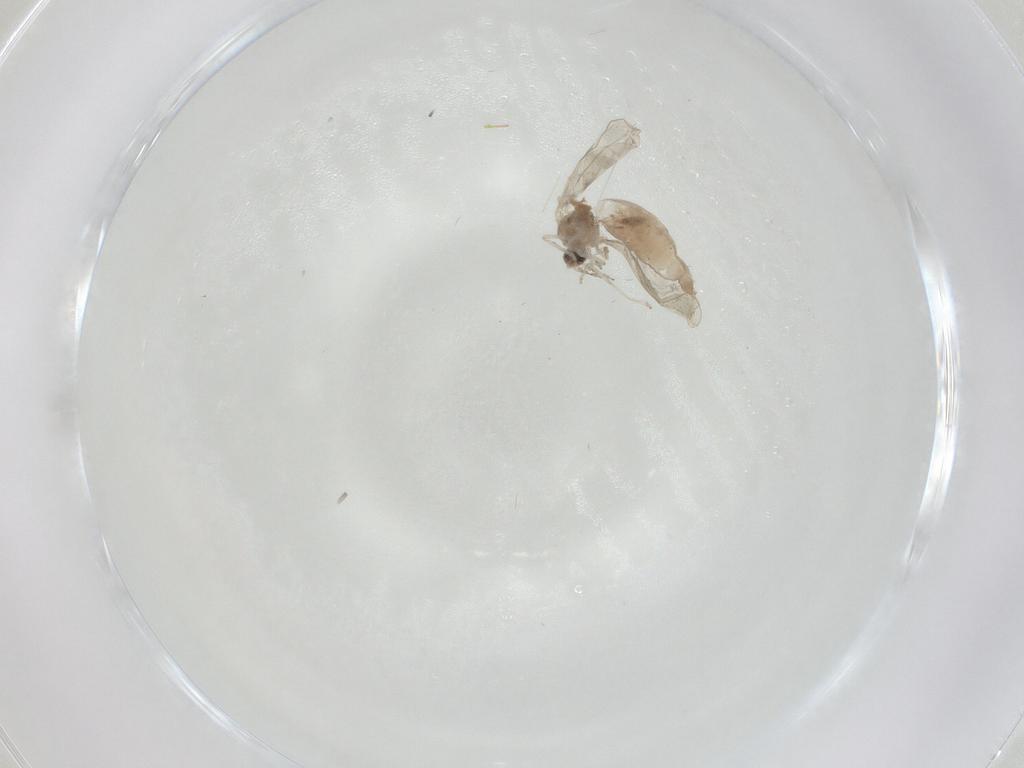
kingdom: Animalia
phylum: Arthropoda
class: Insecta
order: Diptera
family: Cecidomyiidae
